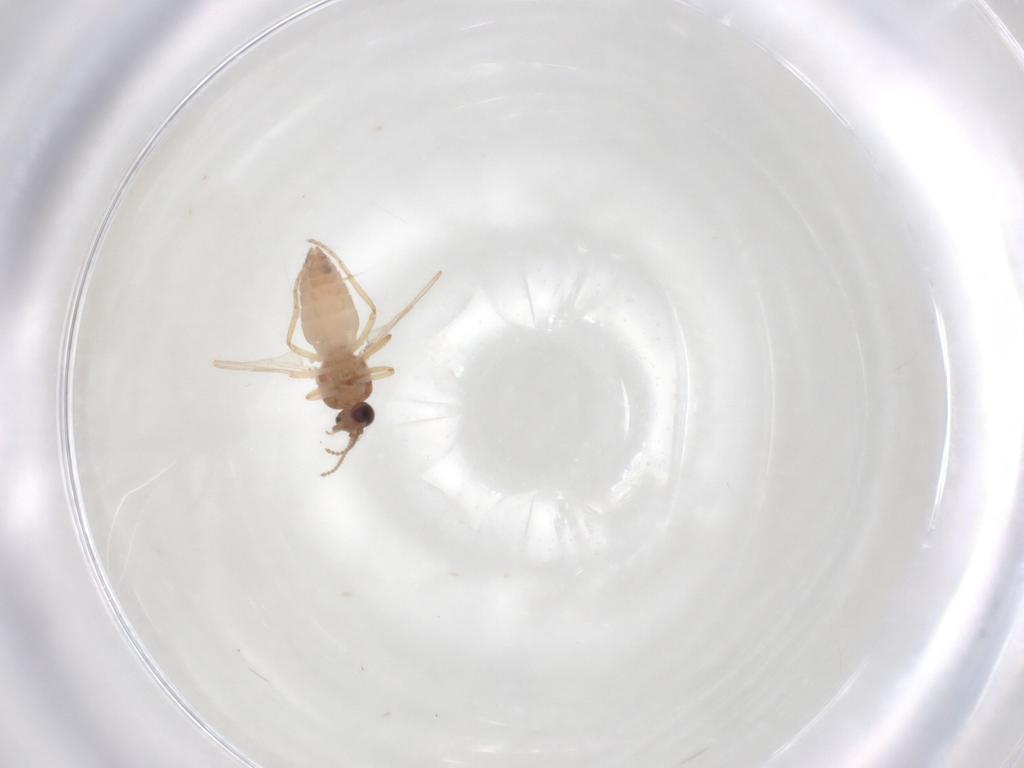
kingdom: Animalia
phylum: Arthropoda
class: Insecta
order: Diptera
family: Ceratopogonidae
